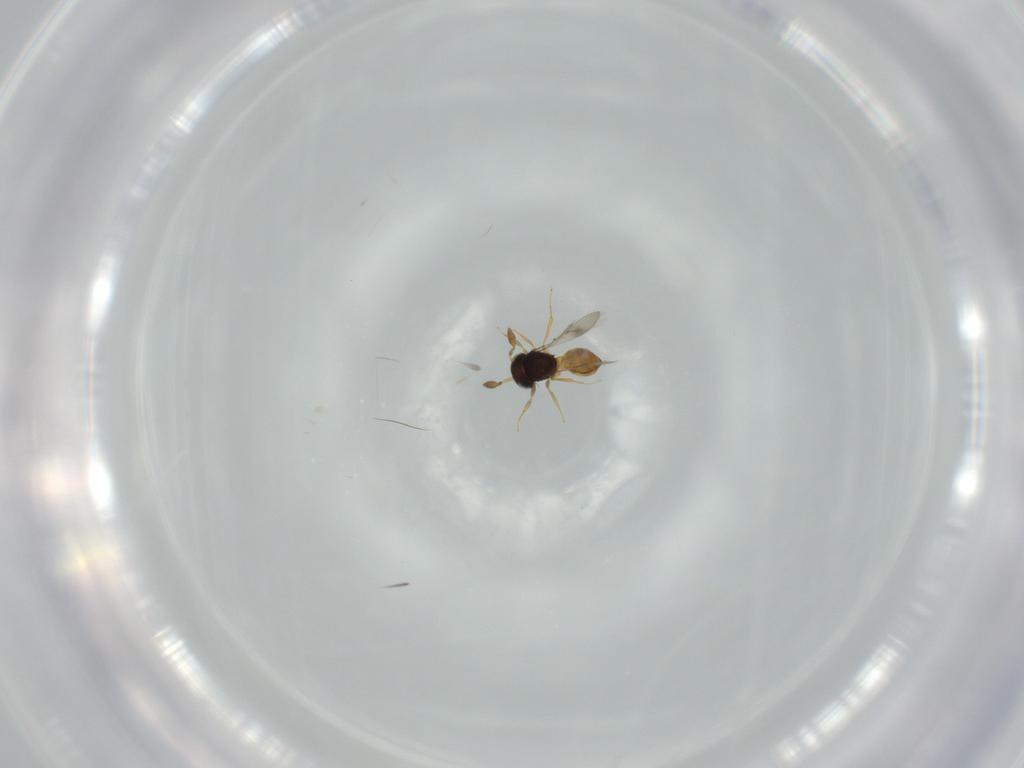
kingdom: Animalia
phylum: Arthropoda
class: Insecta
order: Hymenoptera
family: Scelionidae
